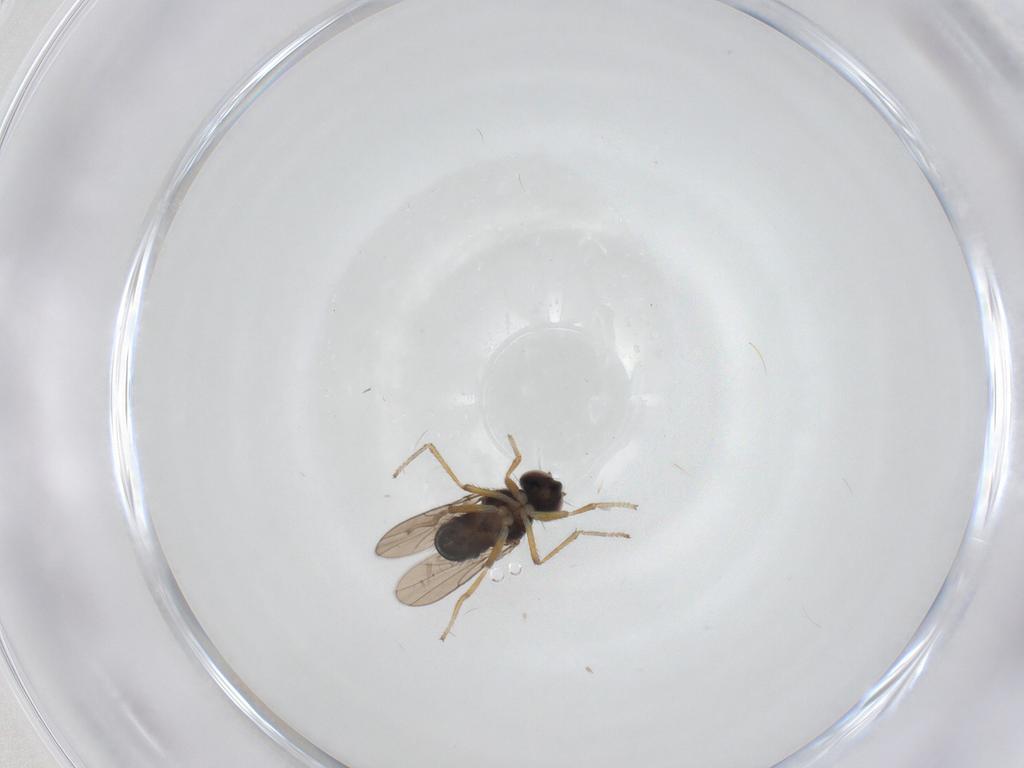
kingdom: Animalia
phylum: Arthropoda
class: Insecta
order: Diptera
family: Ephydridae
